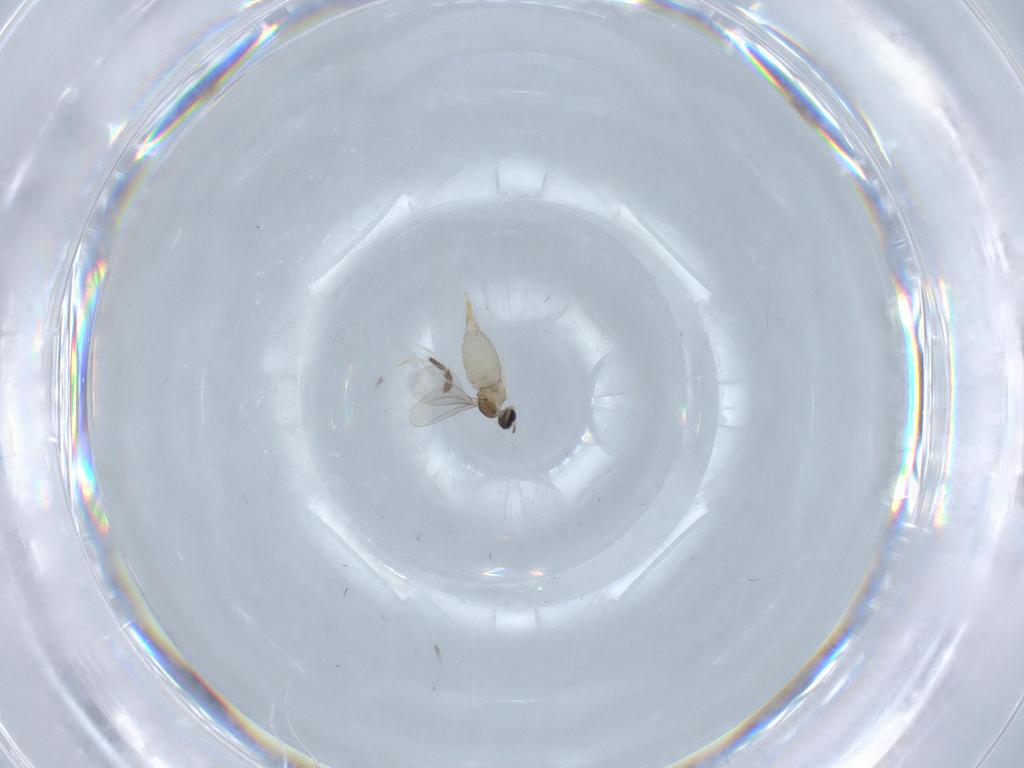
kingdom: Animalia
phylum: Arthropoda
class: Insecta
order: Diptera
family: Cecidomyiidae
